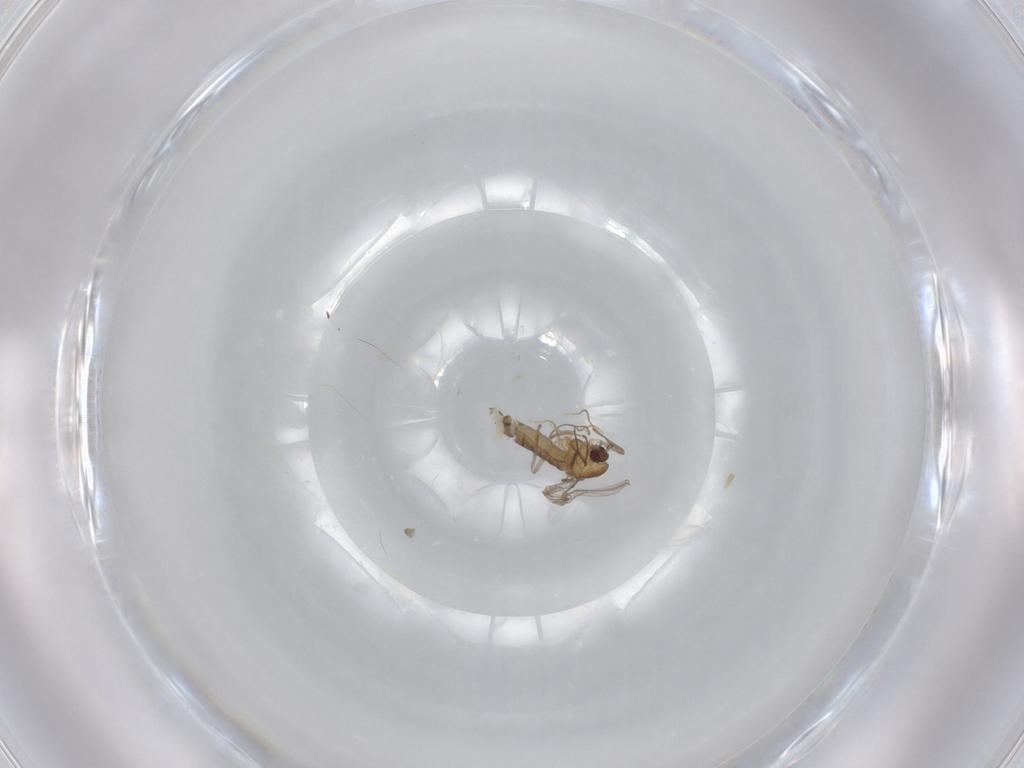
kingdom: Animalia
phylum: Arthropoda
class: Insecta
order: Diptera
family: Chironomidae
